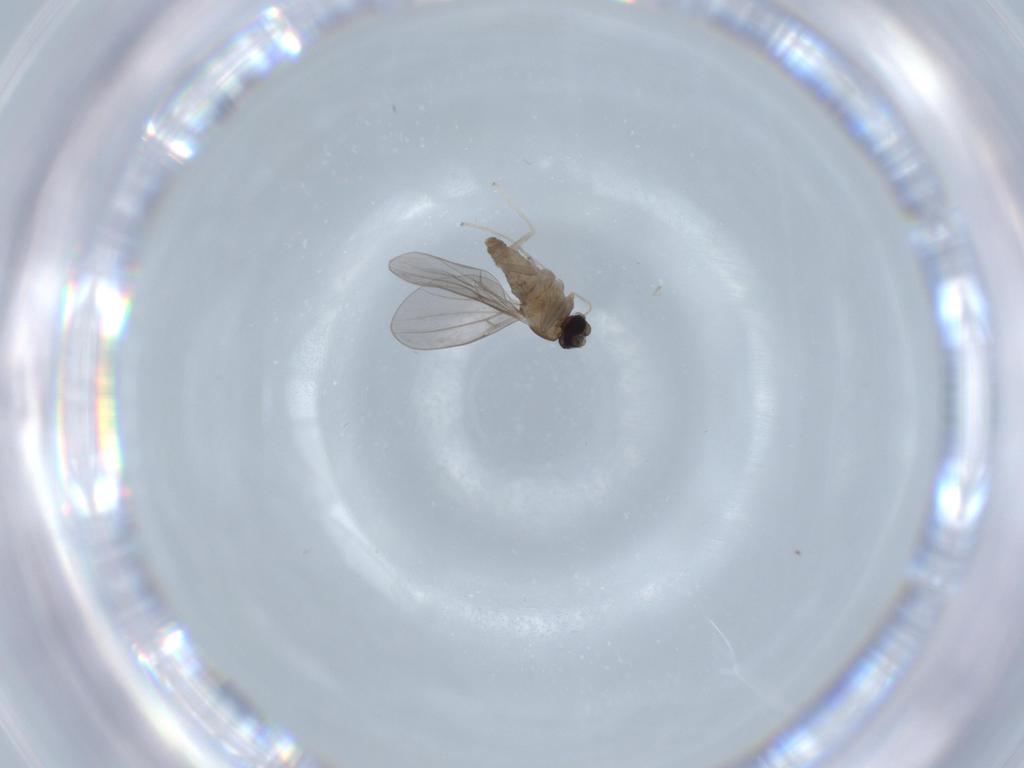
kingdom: Animalia
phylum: Arthropoda
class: Insecta
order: Diptera
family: Cecidomyiidae
